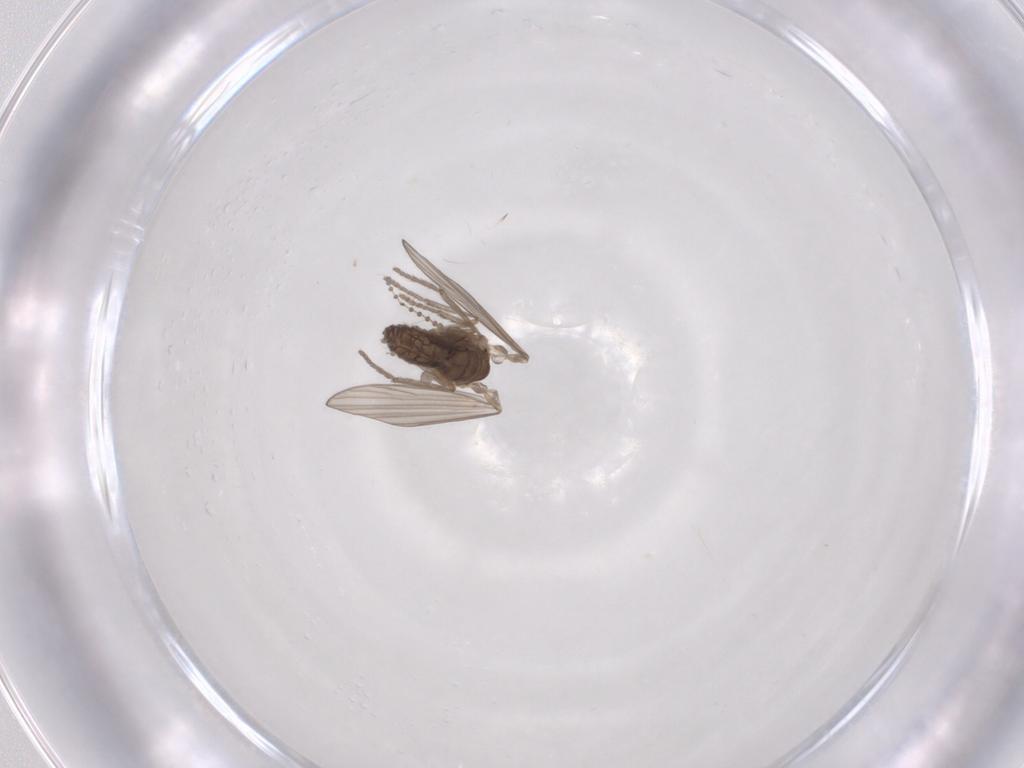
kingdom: Animalia
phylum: Arthropoda
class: Insecta
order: Diptera
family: Psychodidae
